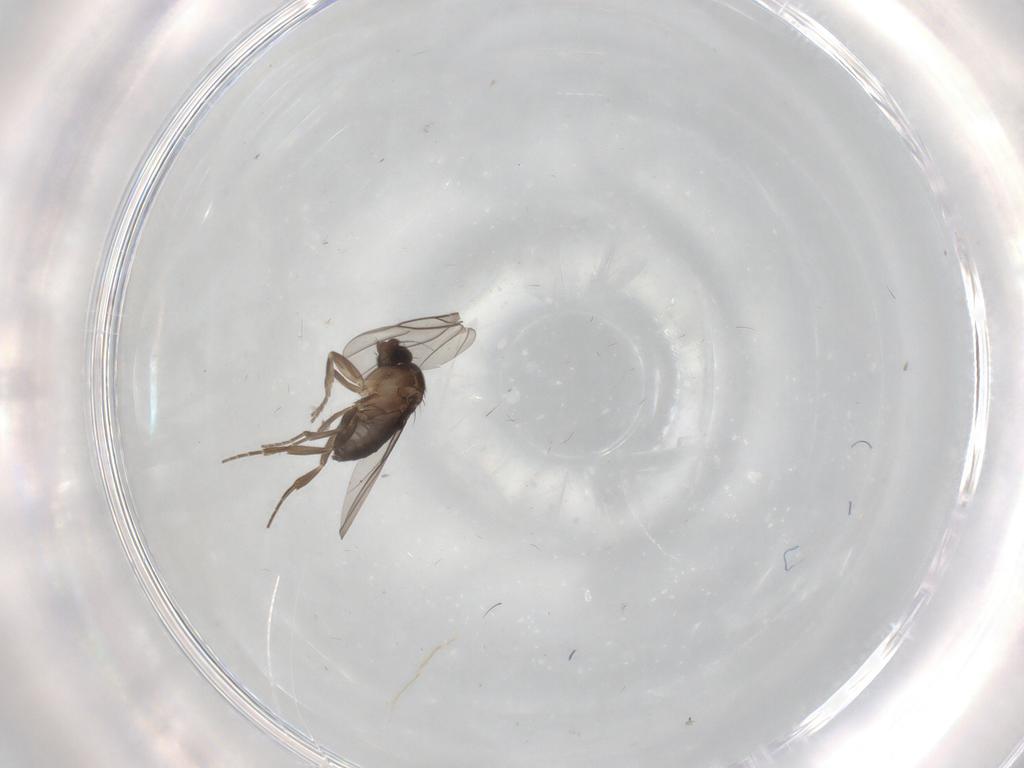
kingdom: Animalia
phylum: Arthropoda
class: Insecta
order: Diptera
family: Phoridae
